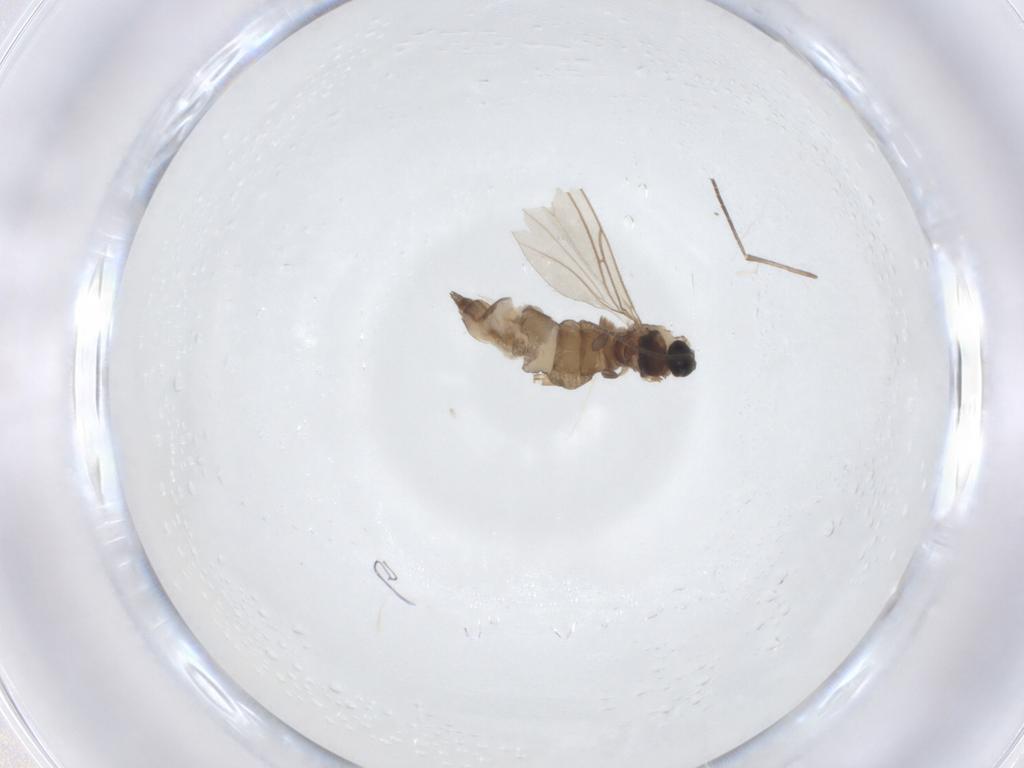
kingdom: Animalia
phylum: Arthropoda
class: Insecta
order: Diptera
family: Sciaridae
